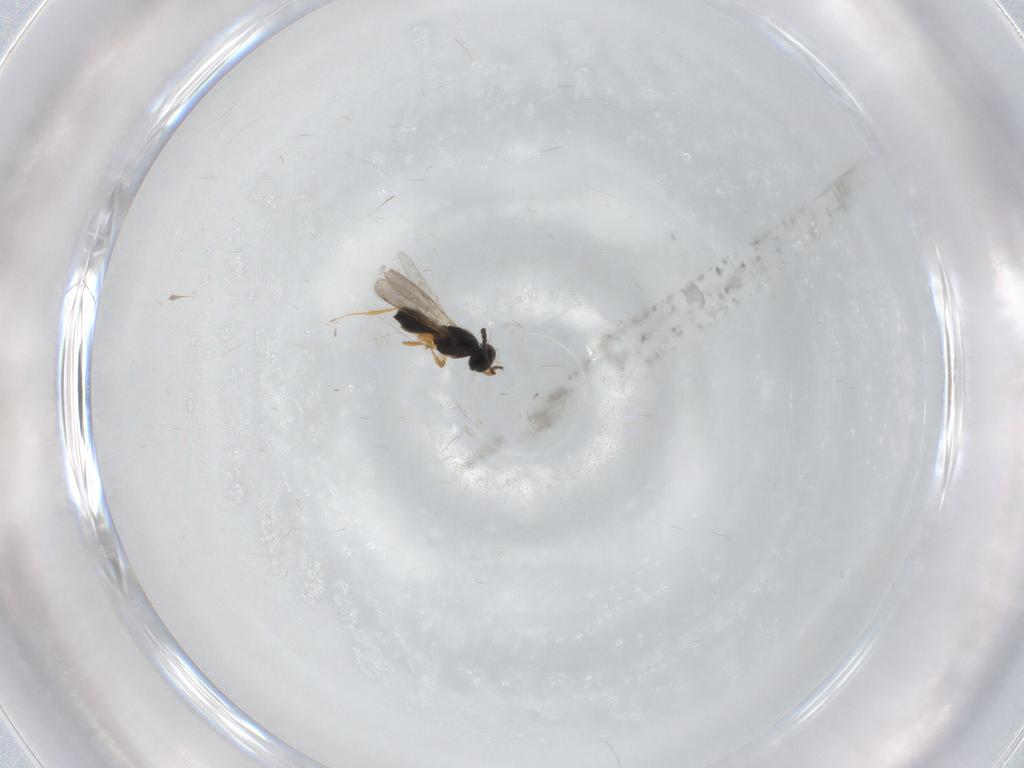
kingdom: Animalia
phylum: Arthropoda
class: Insecta
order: Hymenoptera
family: Scelionidae
